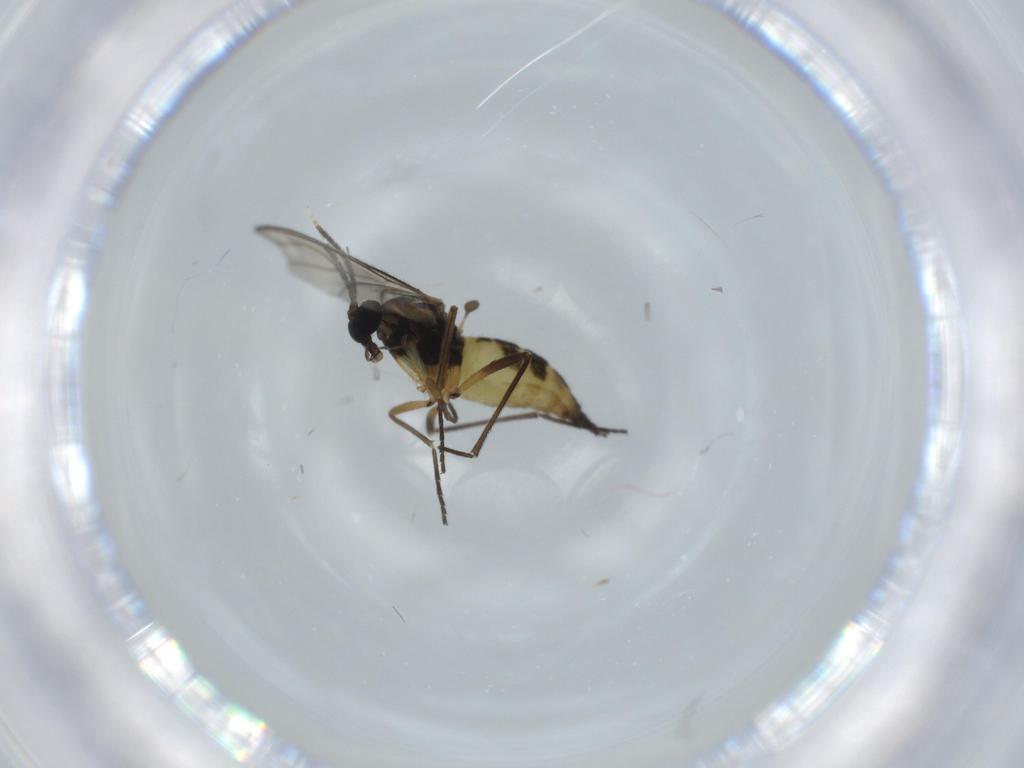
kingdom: Animalia
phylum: Arthropoda
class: Insecta
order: Diptera
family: Sciaridae
